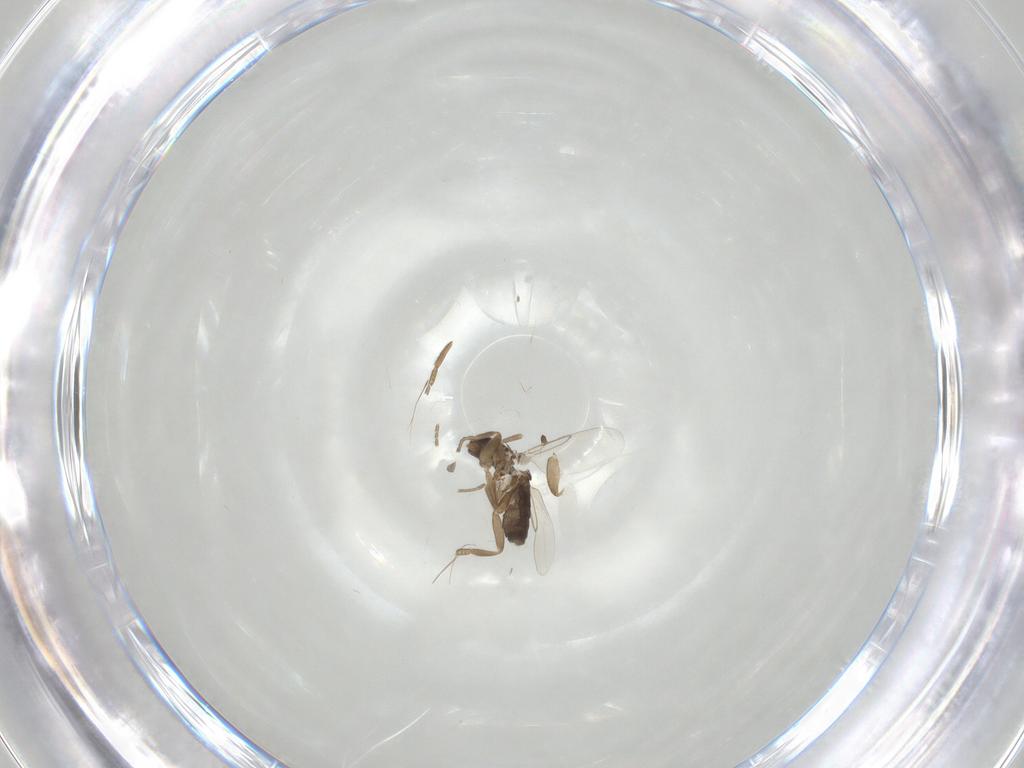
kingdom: Animalia
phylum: Arthropoda
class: Insecta
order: Diptera
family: Phoridae
